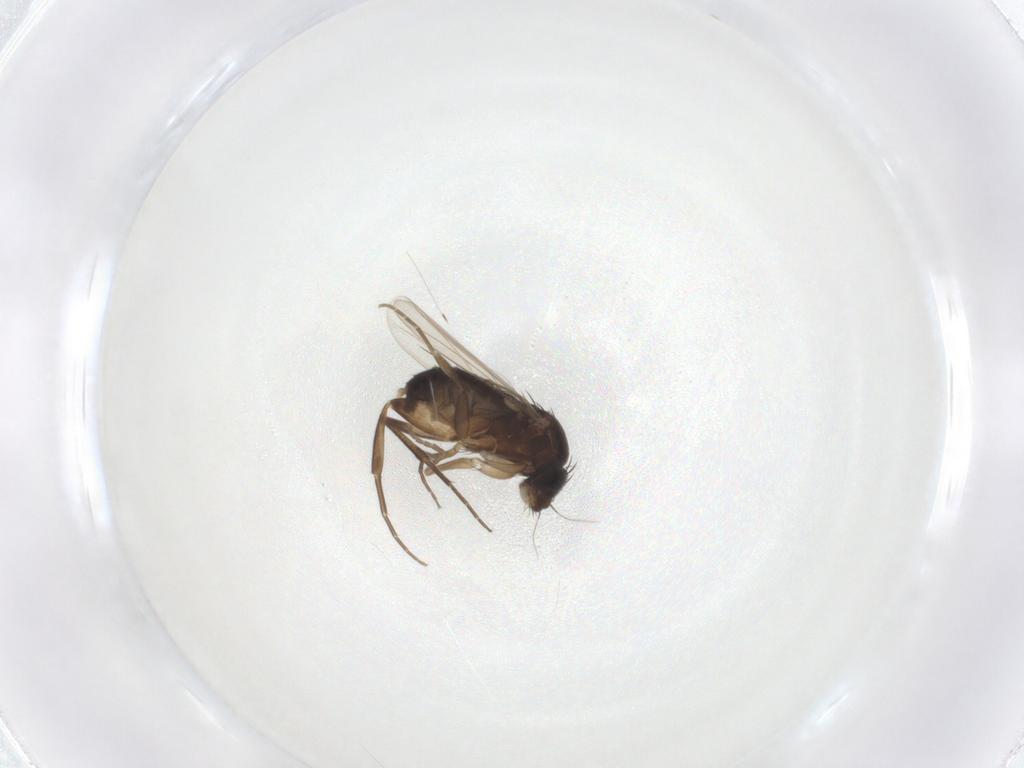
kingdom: Animalia
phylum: Arthropoda
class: Insecta
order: Diptera
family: Phoridae
